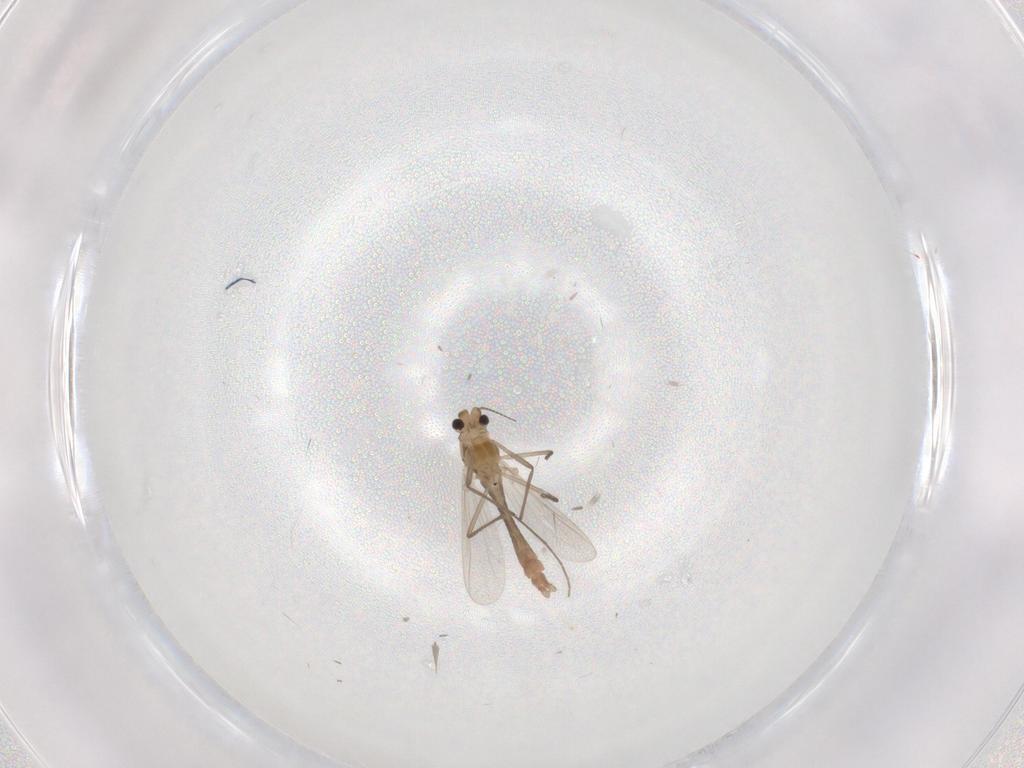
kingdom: Animalia
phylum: Arthropoda
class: Insecta
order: Diptera
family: Chironomidae
